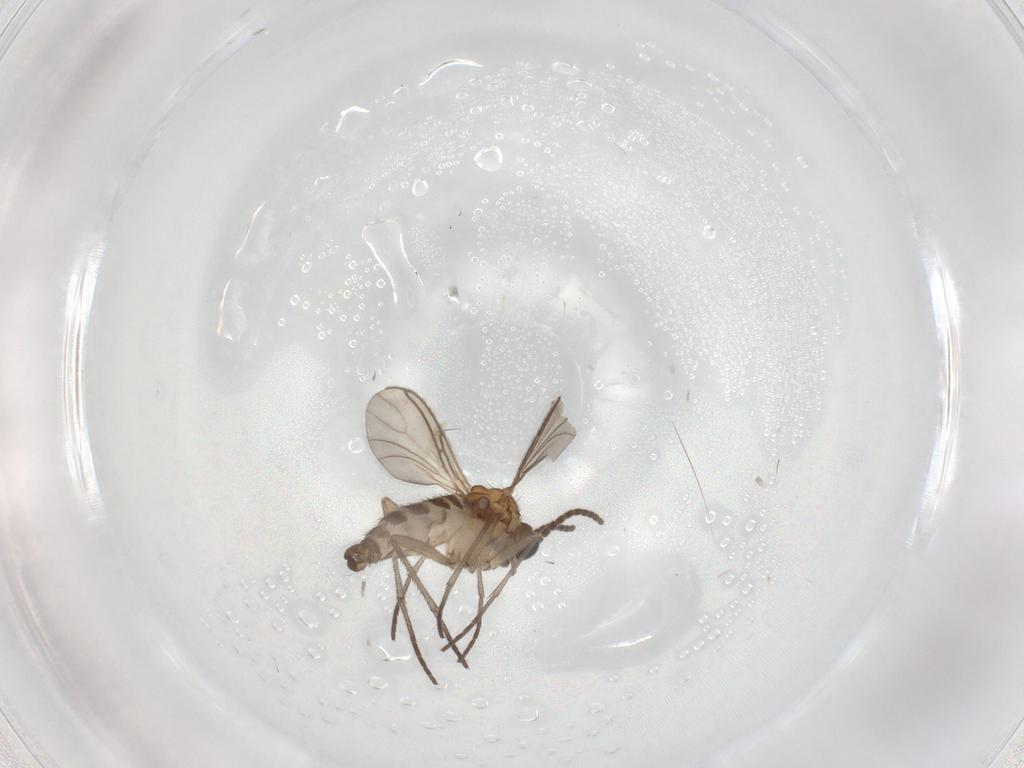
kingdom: Animalia
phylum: Arthropoda
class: Insecta
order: Diptera
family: Sciaridae
